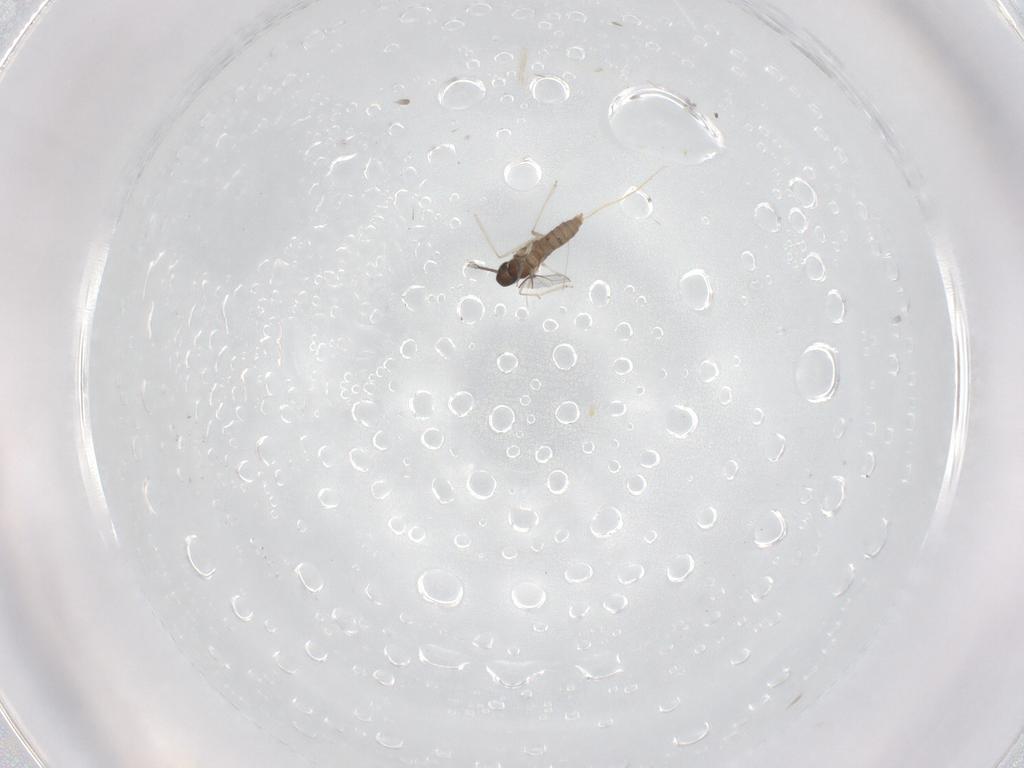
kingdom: Animalia
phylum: Arthropoda
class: Insecta
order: Diptera
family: Cecidomyiidae
